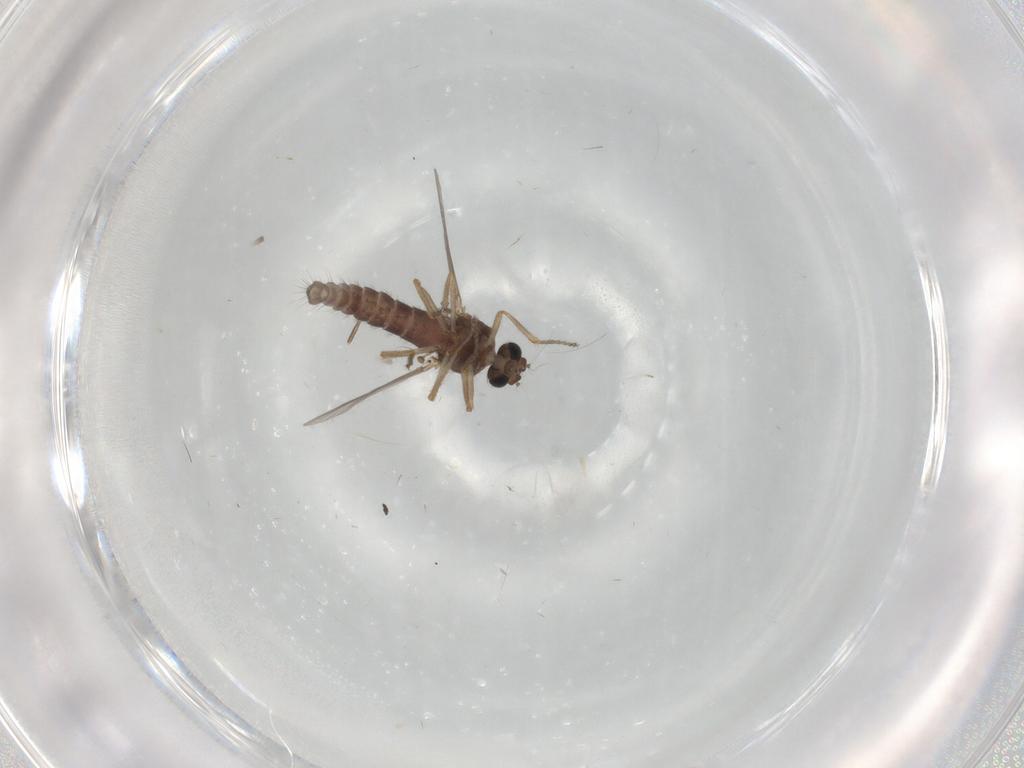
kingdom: Animalia
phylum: Arthropoda
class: Insecta
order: Diptera
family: Ceratopogonidae
